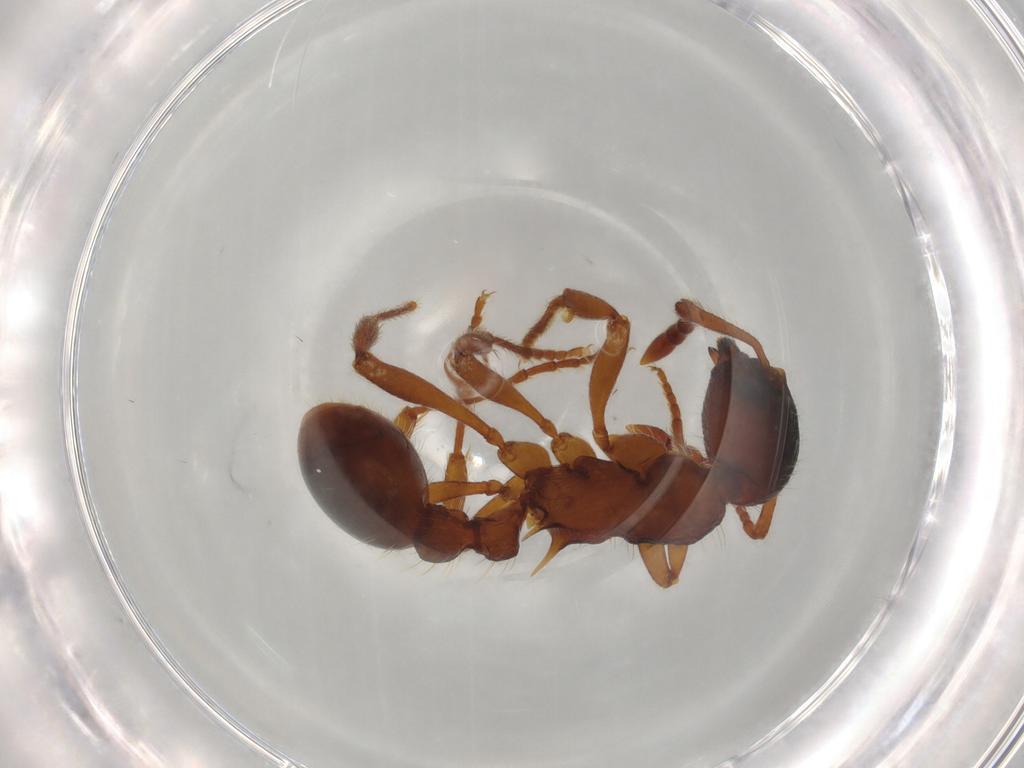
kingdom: Animalia
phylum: Arthropoda
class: Insecta
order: Hymenoptera
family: Formicidae
